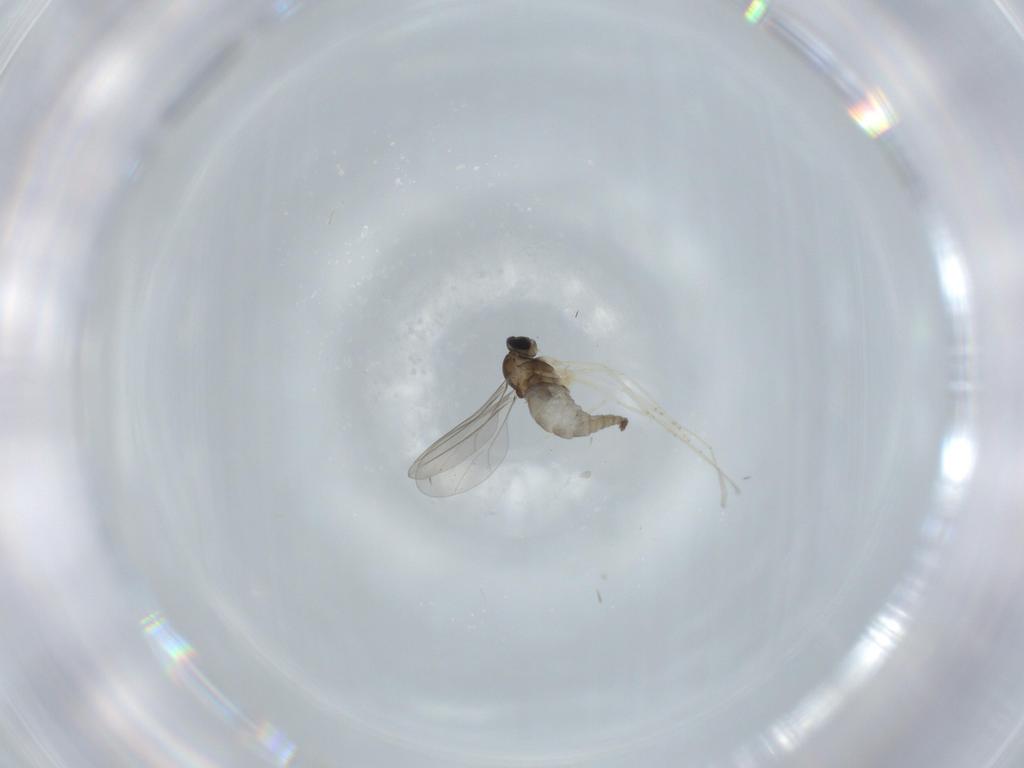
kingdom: Animalia
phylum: Arthropoda
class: Insecta
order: Diptera
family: Cecidomyiidae
